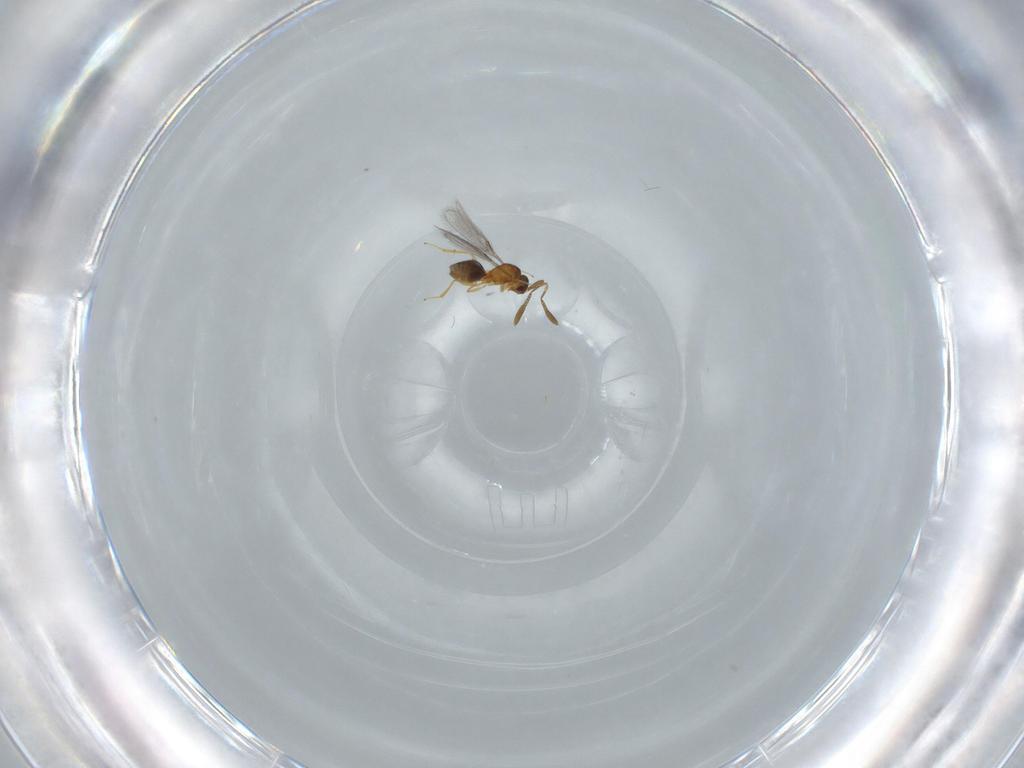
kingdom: Animalia
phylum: Arthropoda
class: Insecta
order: Hymenoptera
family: Mymaridae
